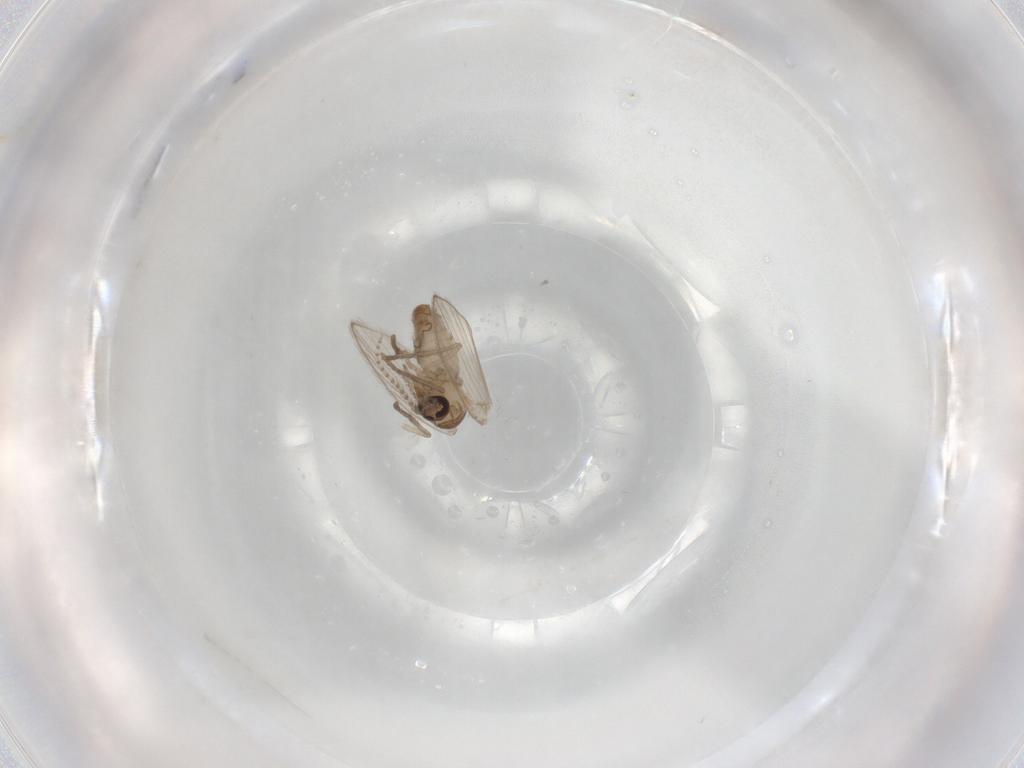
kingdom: Animalia
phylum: Arthropoda
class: Insecta
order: Diptera
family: Psychodidae
